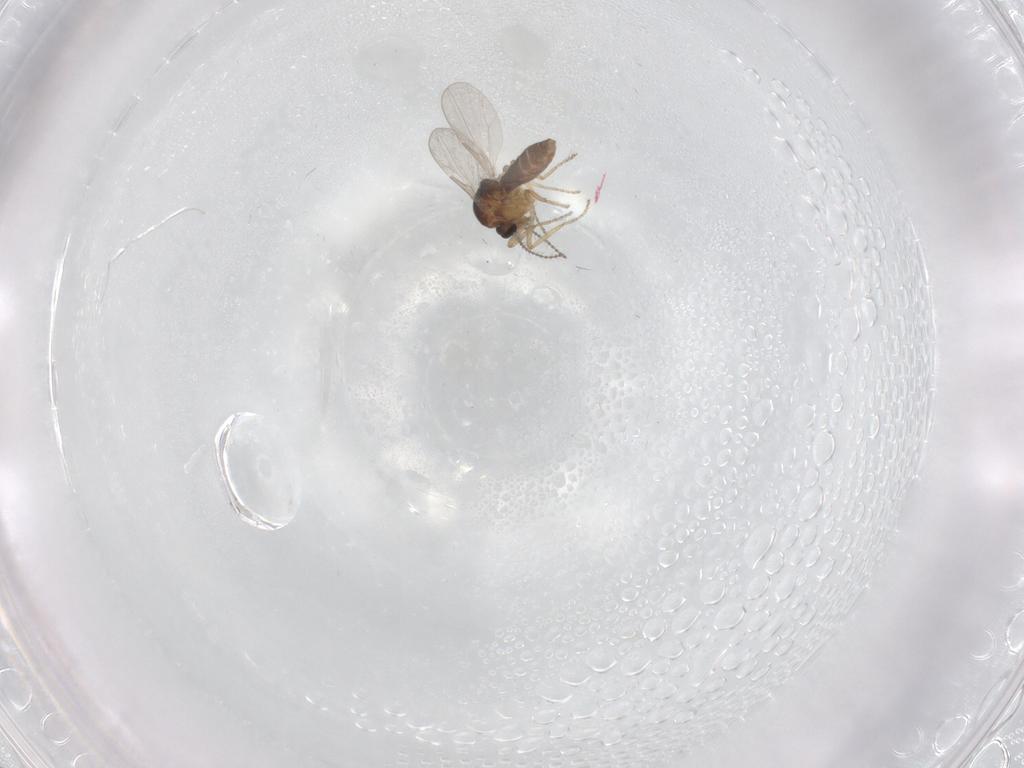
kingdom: Animalia
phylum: Arthropoda
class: Insecta
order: Diptera
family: Ceratopogonidae
